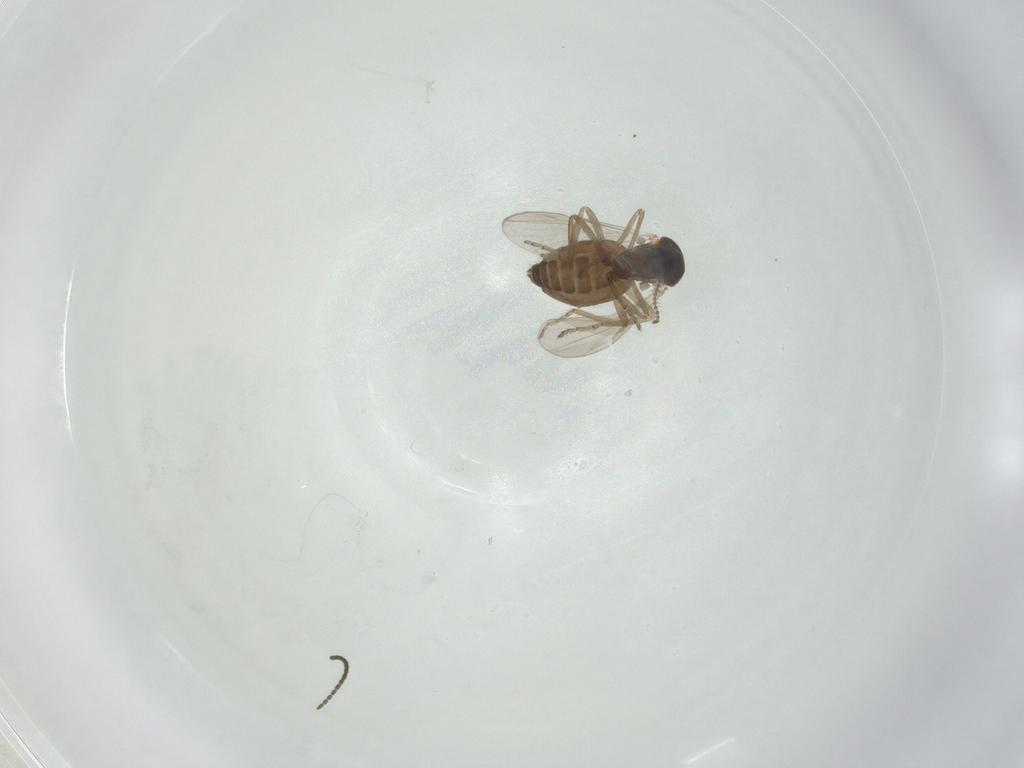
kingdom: Animalia
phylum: Arthropoda
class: Insecta
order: Diptera
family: Ceratopogonidae
